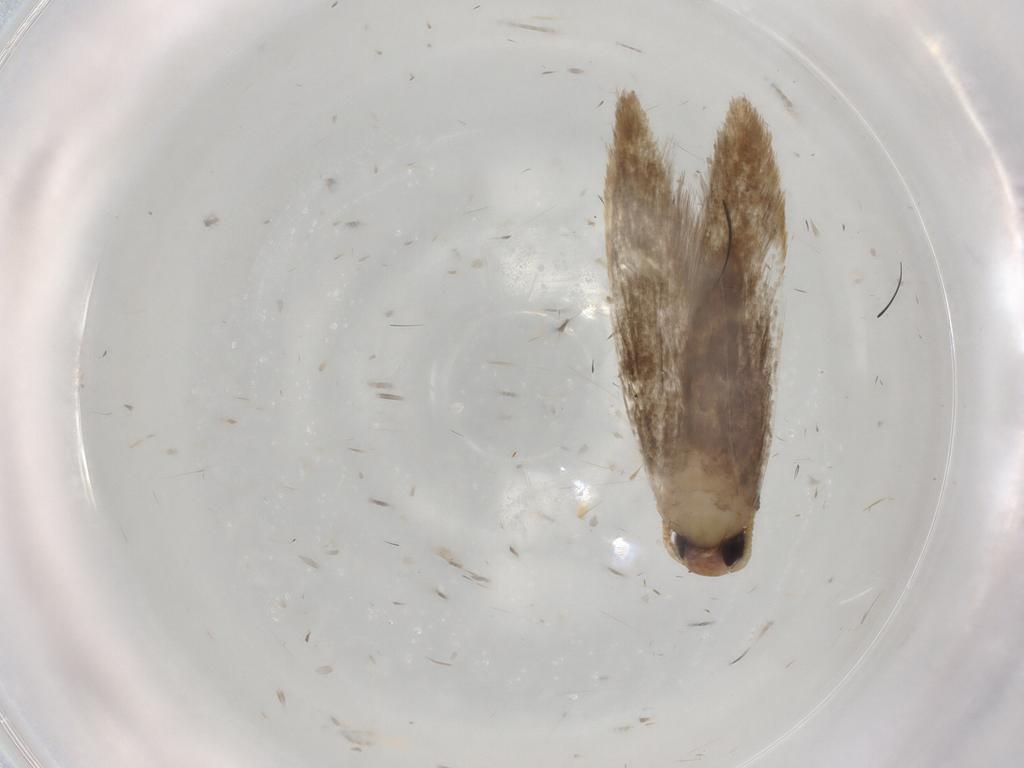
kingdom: Animalia
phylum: Arthropoda
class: Insecta
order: Lepidoptera
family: Cosmopterigidae
